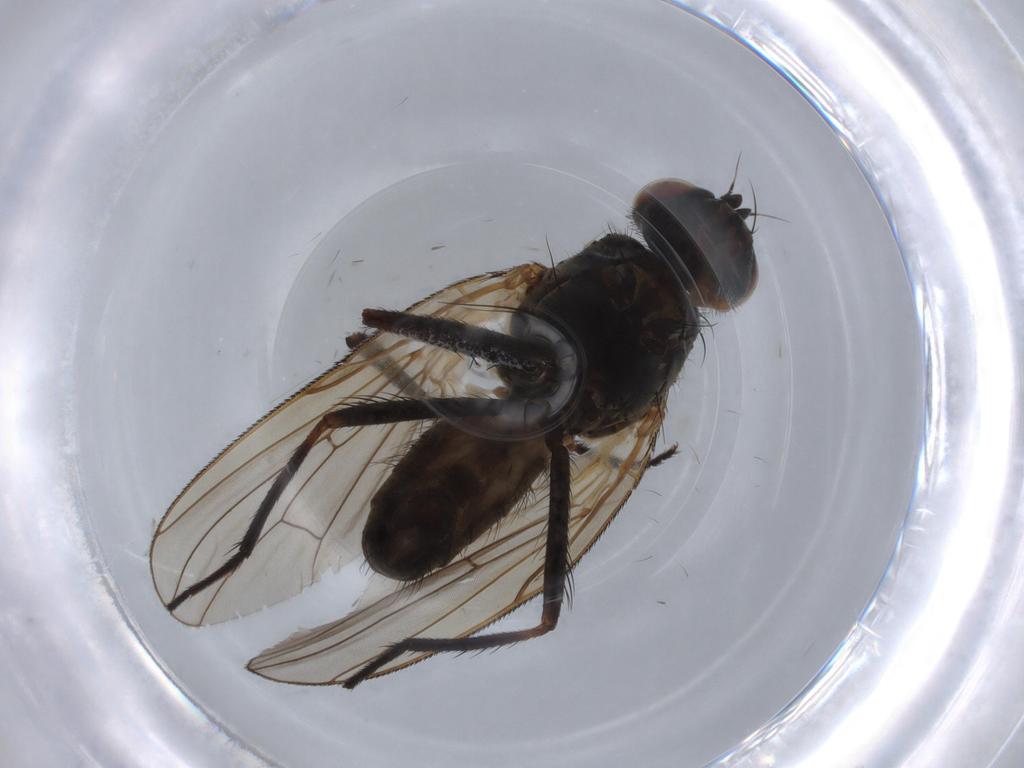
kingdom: Animalia
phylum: Arthropoda
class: Insecta
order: Diptera
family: Anthomyiidae
